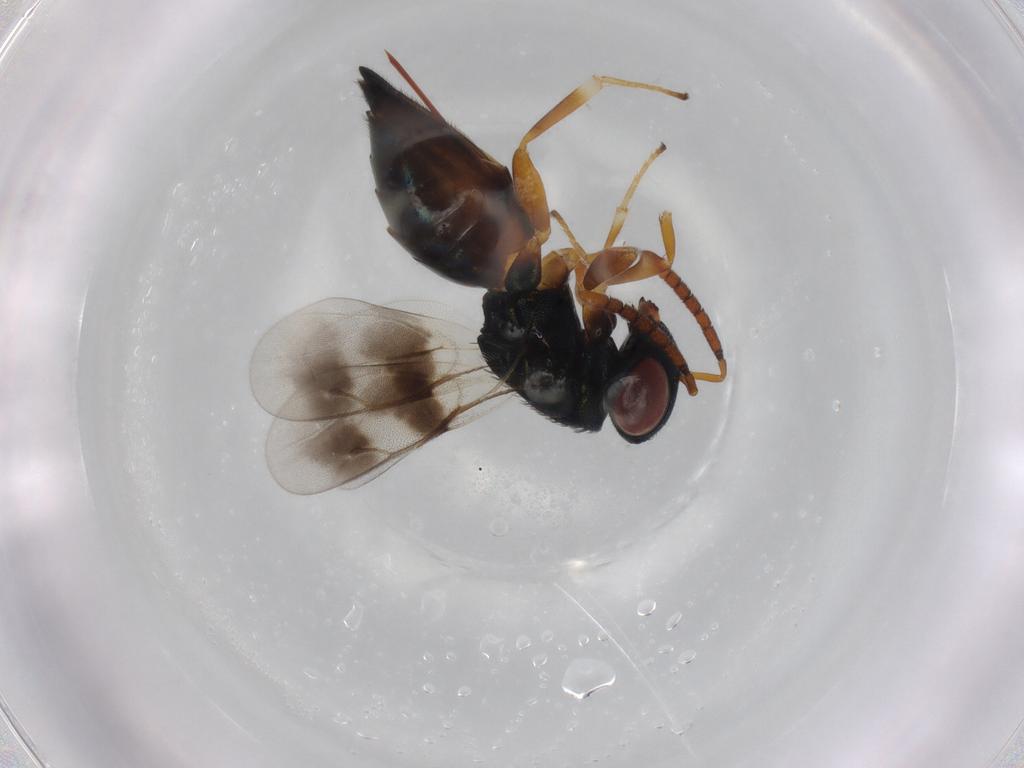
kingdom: Animalia
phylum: Arthropoda
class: Insecta
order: Hymenoptera
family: Pteromalidae
